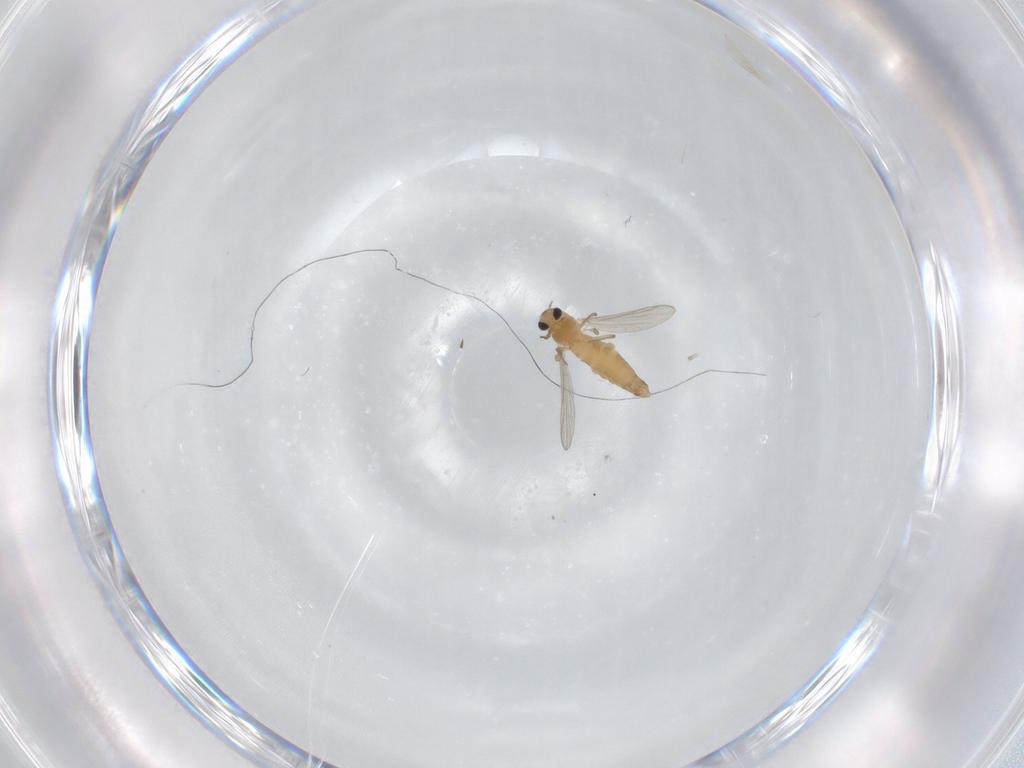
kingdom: Animalia
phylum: Arthropoda
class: Insecta
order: Diptera
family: Chironomidae
